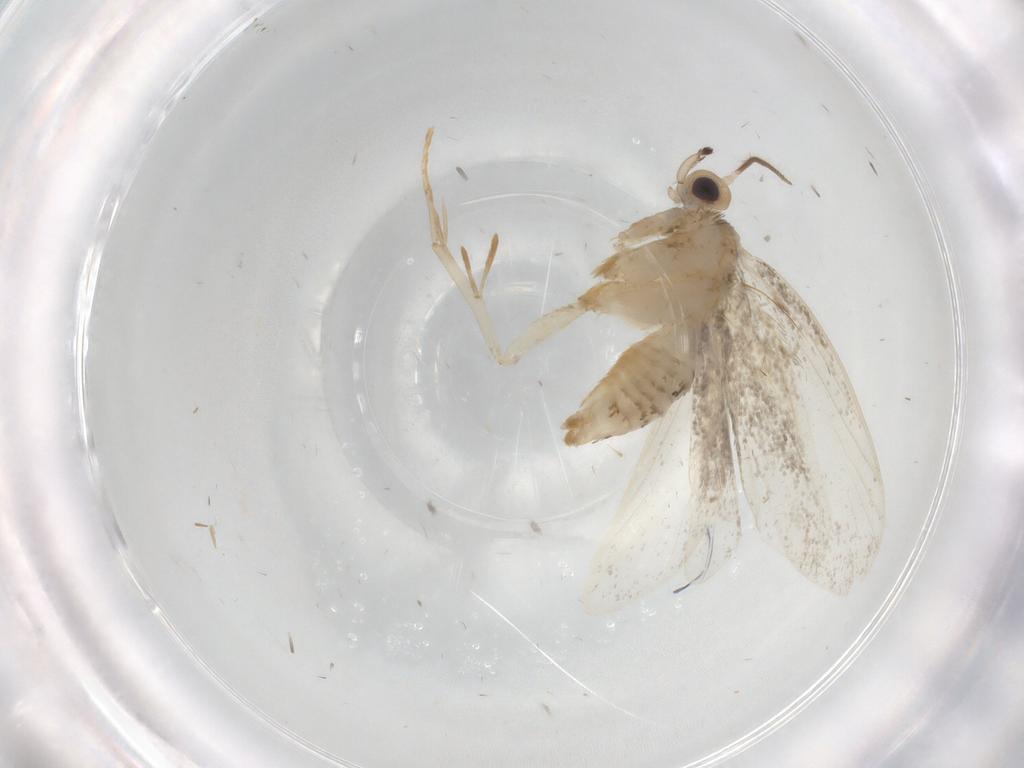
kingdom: Animalia
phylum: Arthropoda
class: Insecta
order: Lepidoptera
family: Psychidae
